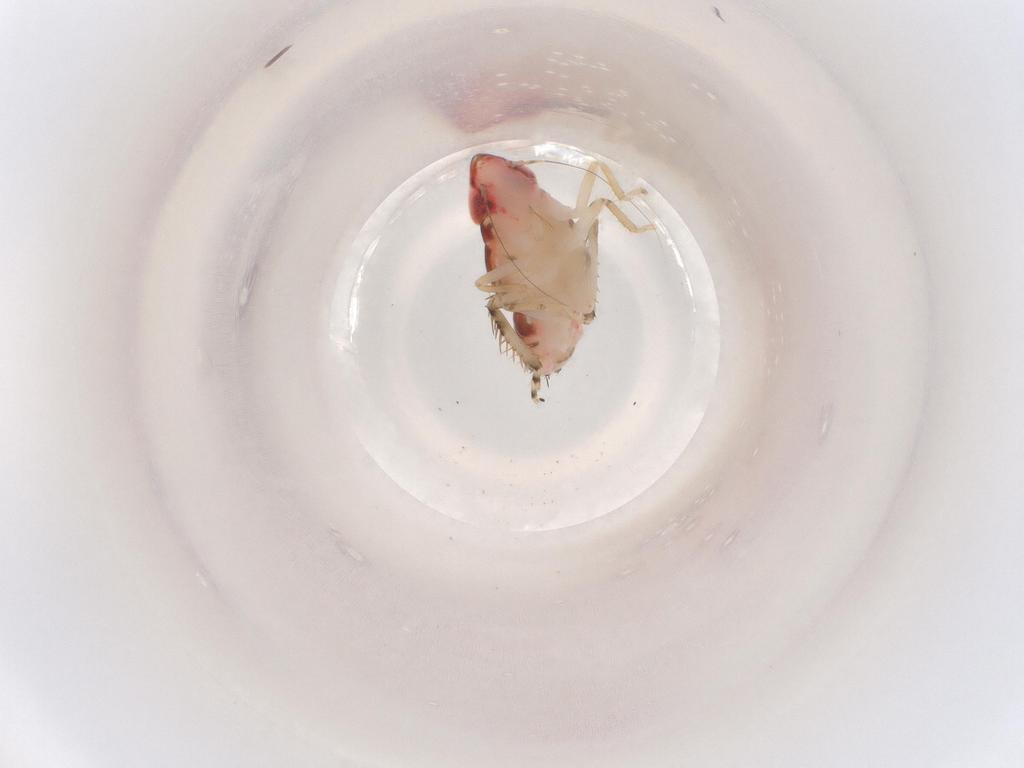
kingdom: Animalia
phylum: Arthropoda
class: Insecta
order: Hemiptera
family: Cicadellidae
